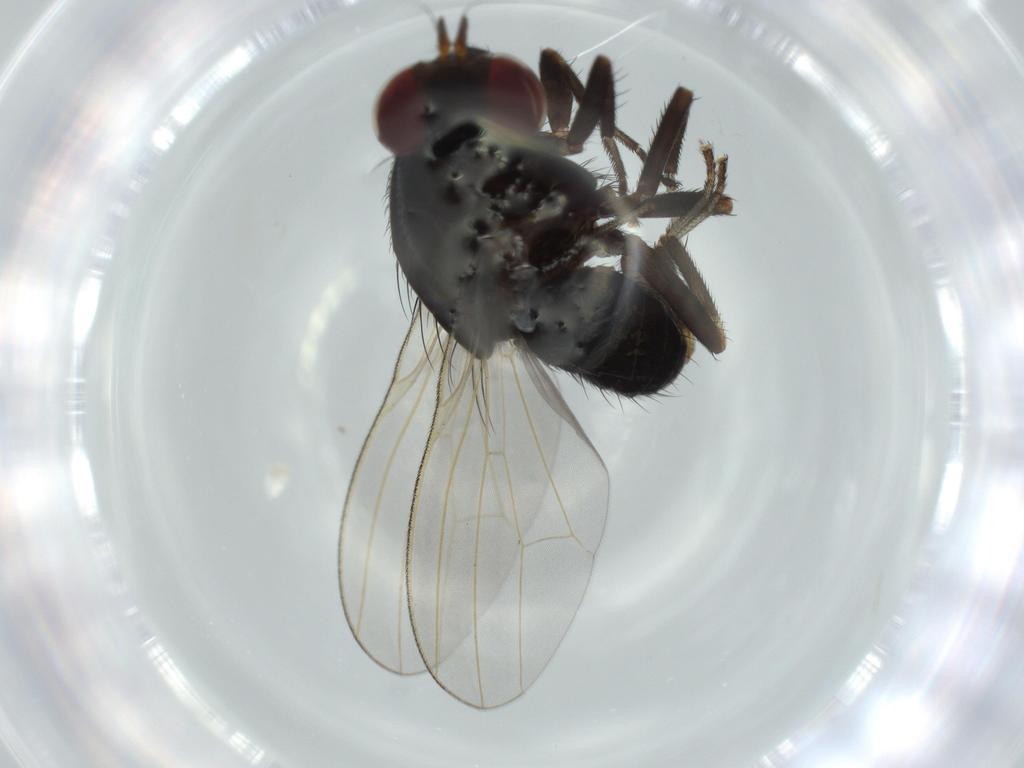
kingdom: Animalia
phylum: Arthropoda
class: Insecta
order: Diptera
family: Lauxaniidae
